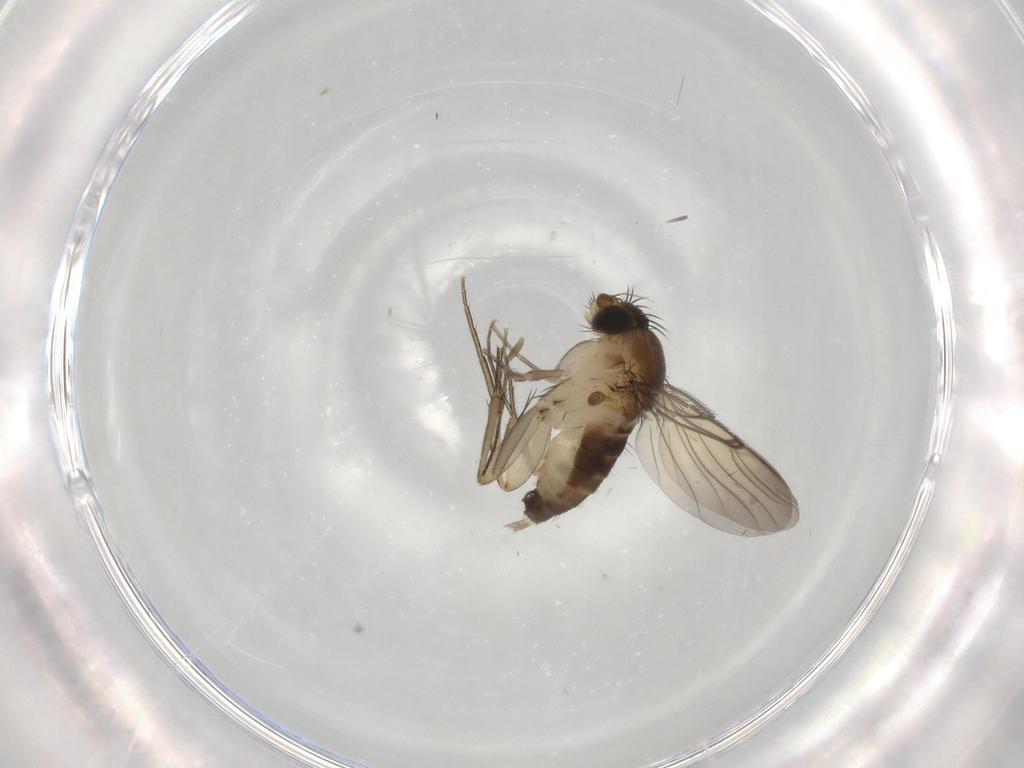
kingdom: Animalia
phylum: Arthropoda
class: Insecta
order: Diptera
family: Phoridae
